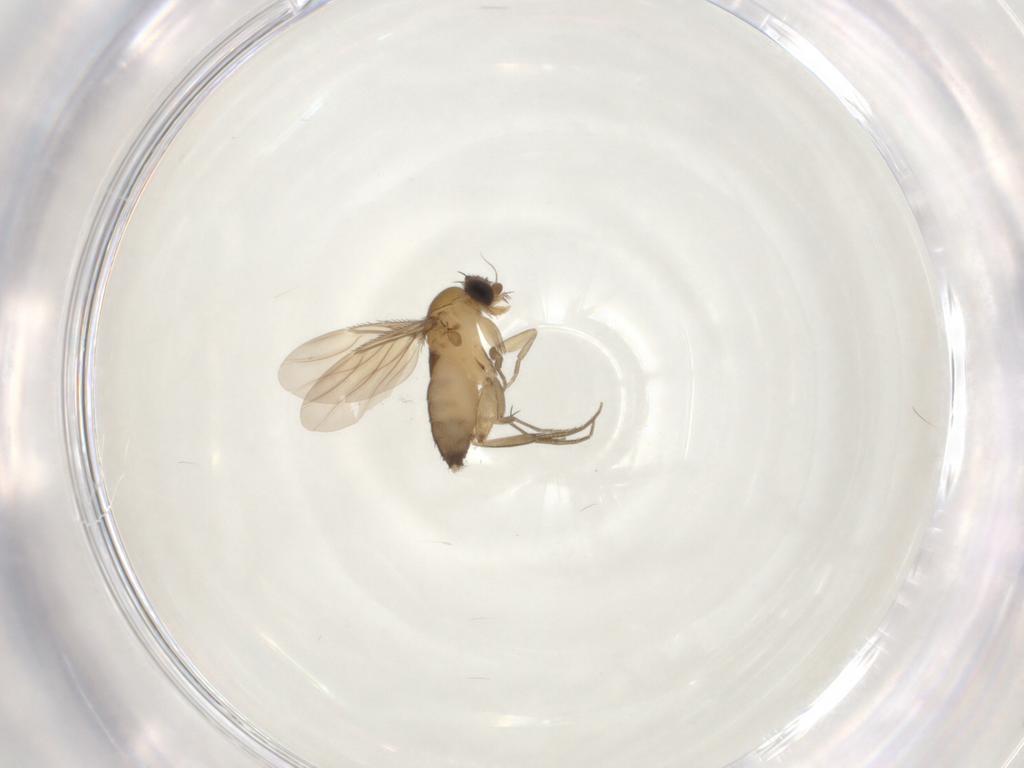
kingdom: Animalia
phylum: Arthropoda
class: Insecta
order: Diptera
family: Phoridae
